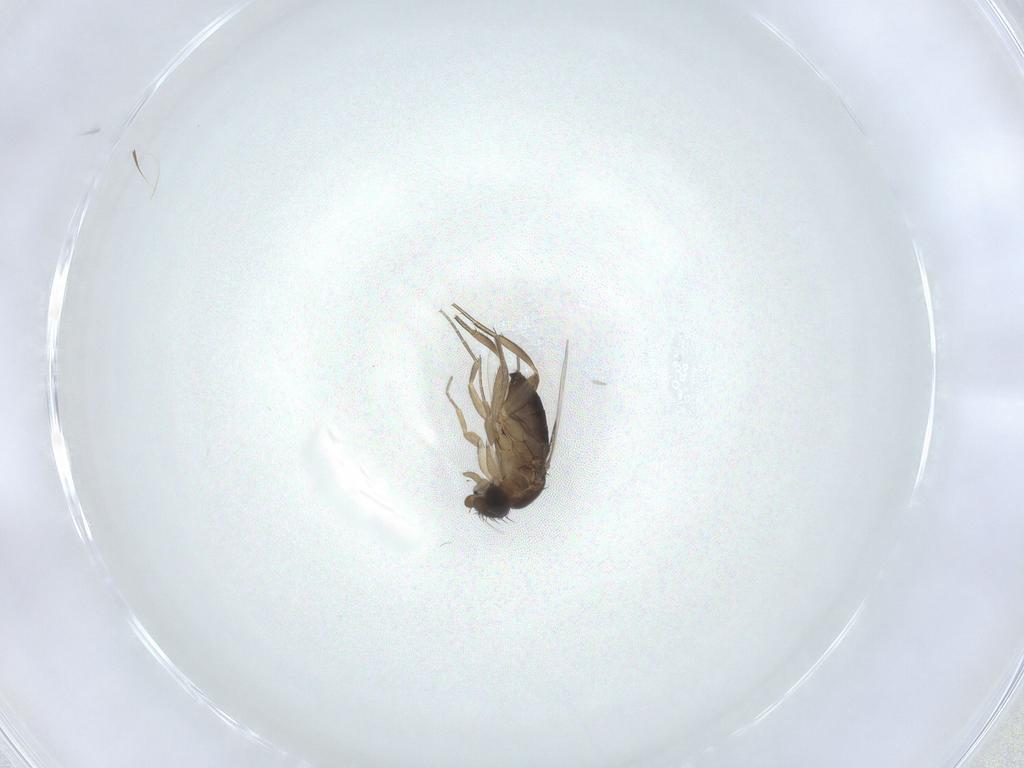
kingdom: Animalia
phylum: Arthropoda
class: Insecta
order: Diptera
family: Phoridae
